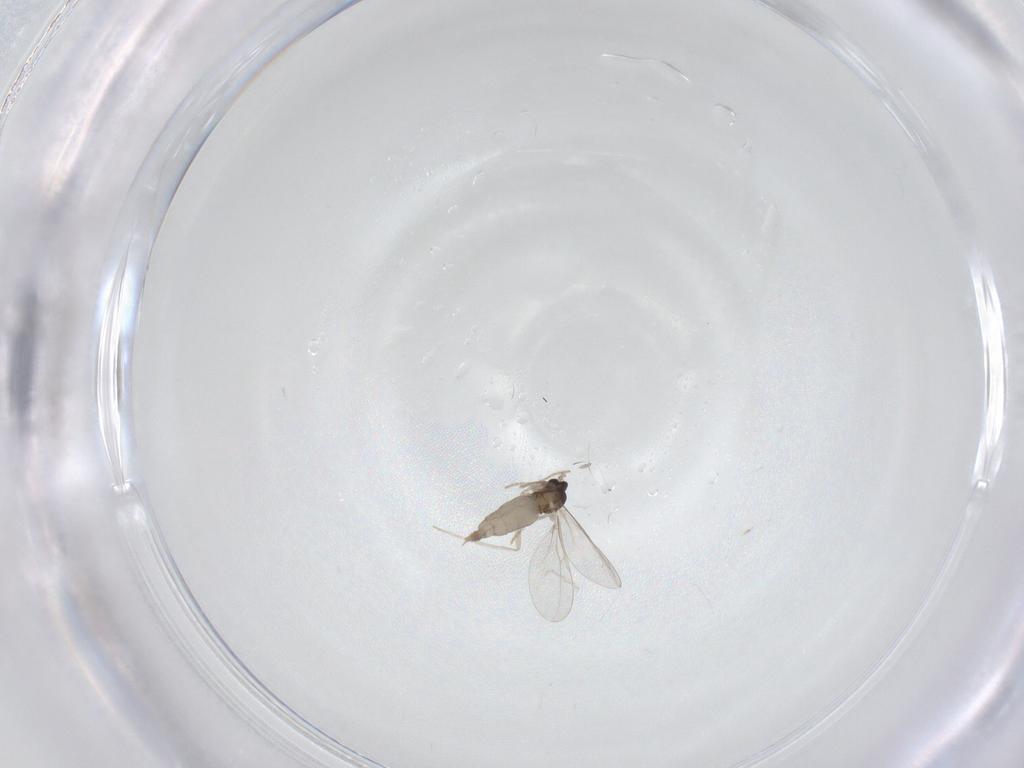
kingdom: Animalia
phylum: Arthropoda
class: Insecta
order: Diptera
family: Cecidomyiidae
